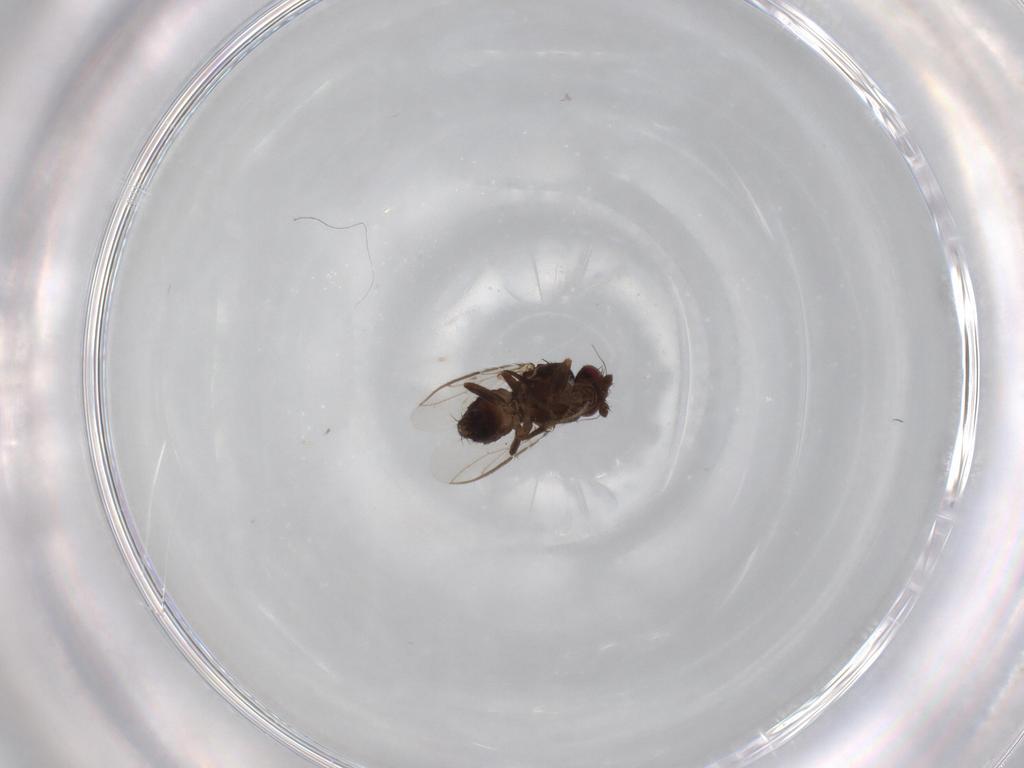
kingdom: Animalia
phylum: Arthropoda
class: Insecta
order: Diptera
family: Sphaeroceridae
